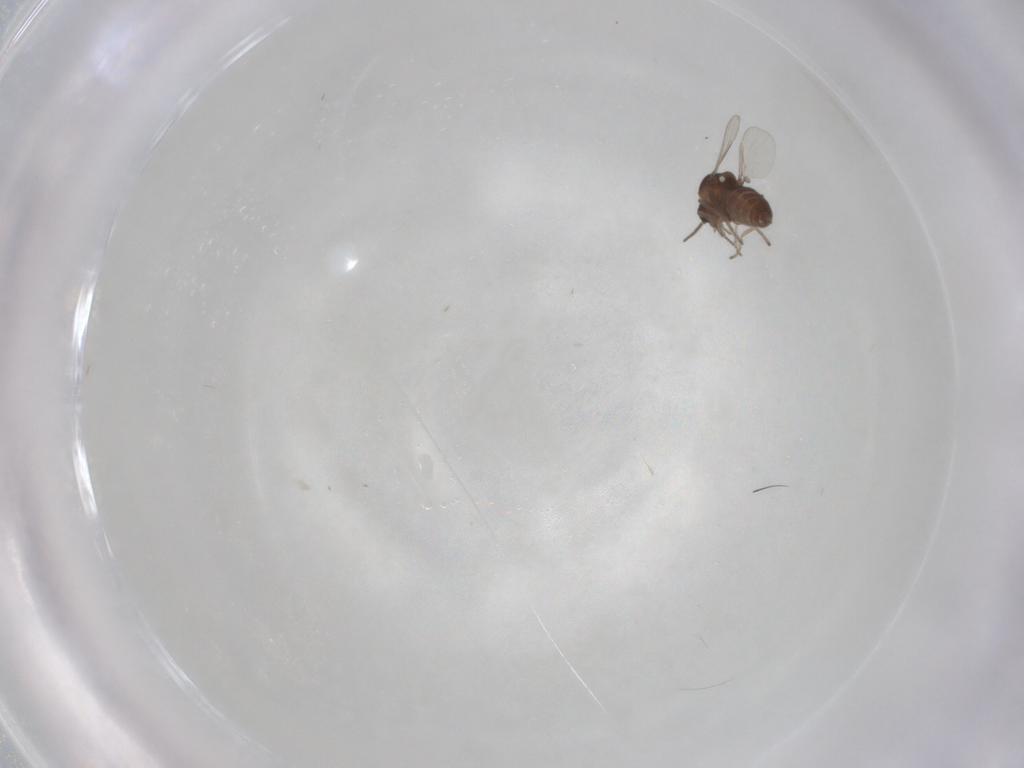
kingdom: Animalia
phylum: Arthropoda
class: Insecta
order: Diptera
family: Ceratopogonidae
